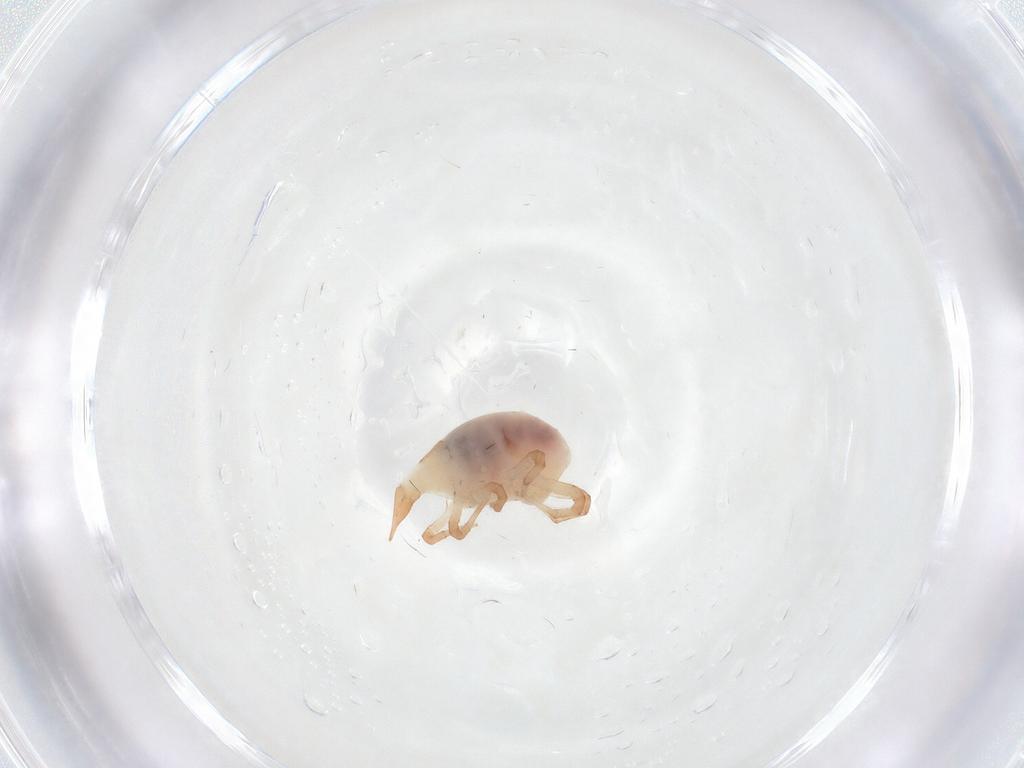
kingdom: Animalia
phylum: Arthropoda
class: Arachnida
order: Trombidiformes
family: Bdellidae
